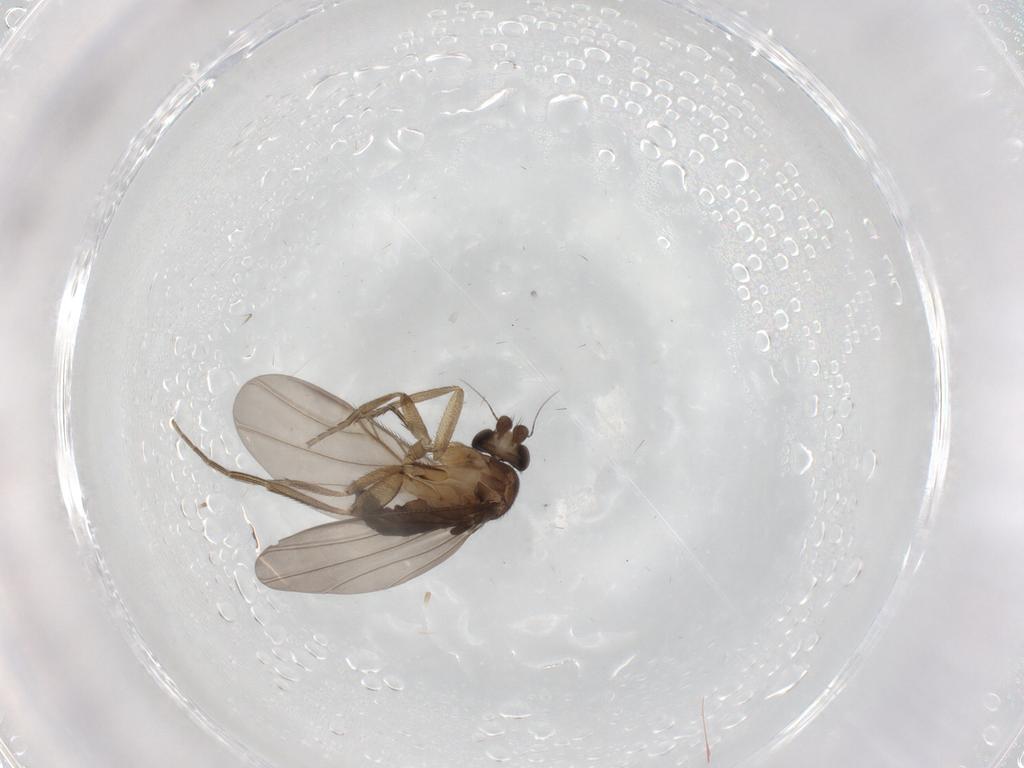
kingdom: Animalia
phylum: Arthropoda
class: Insecta
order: Diptera
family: Phoridae
